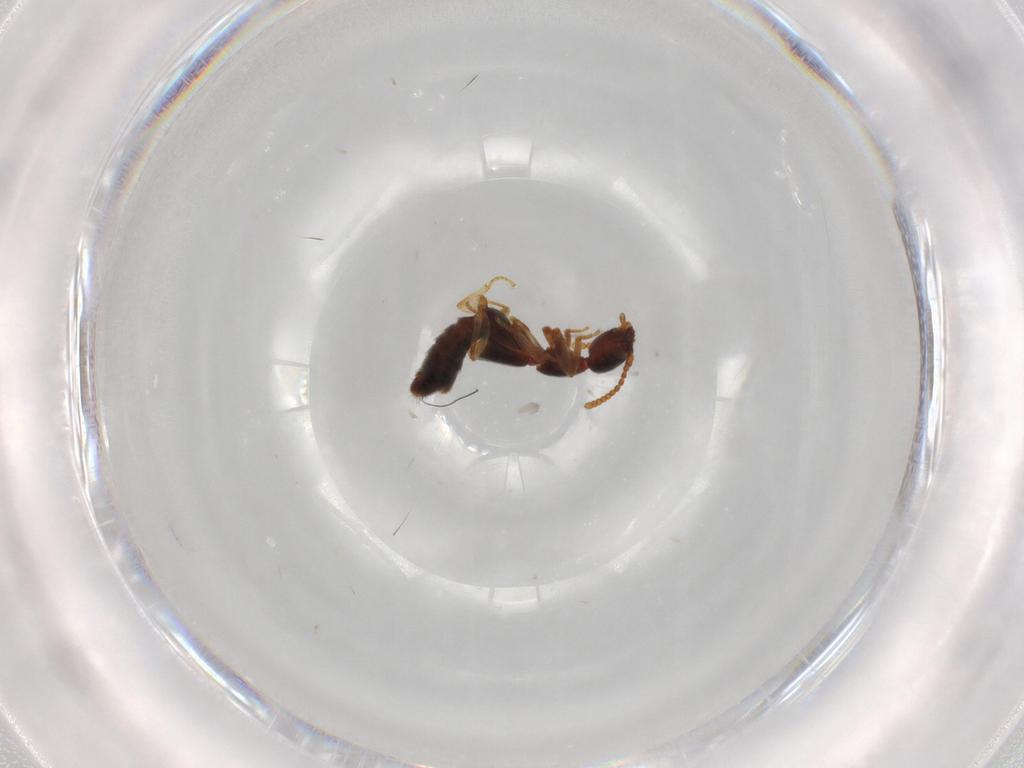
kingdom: Animalia
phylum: Arthropoda
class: Insecta
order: Coleoptera
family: Staphylinidae
